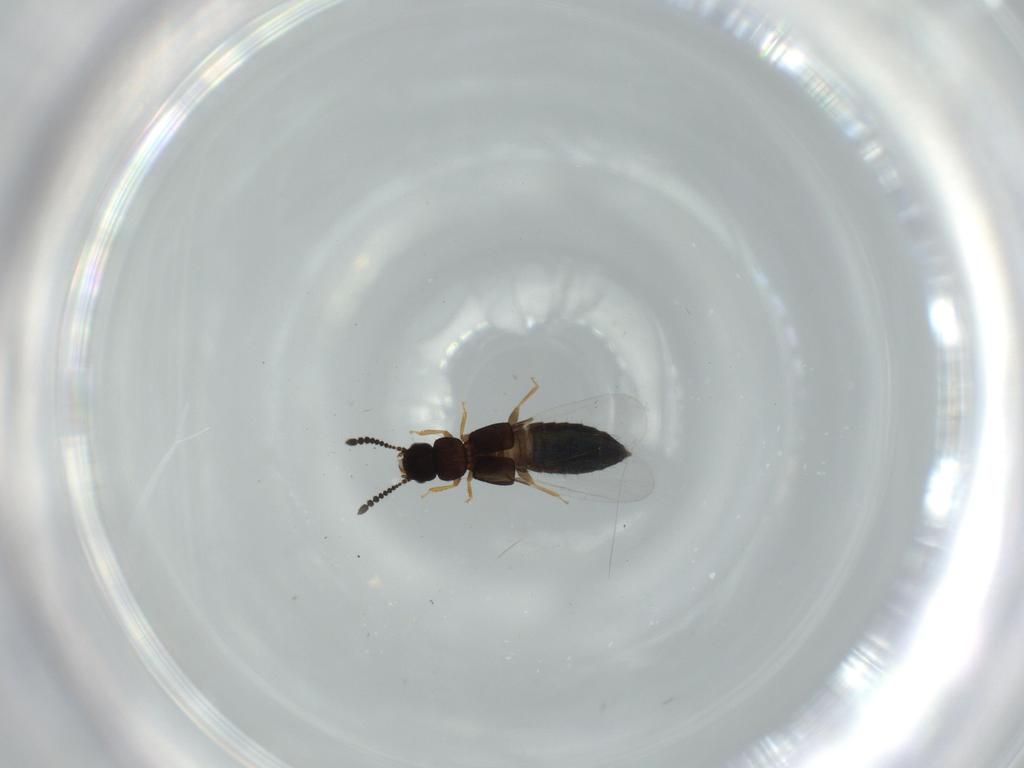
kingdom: Animalia
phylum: Arthropoda
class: Insecta
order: Coleoptera
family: Staphylinidae
